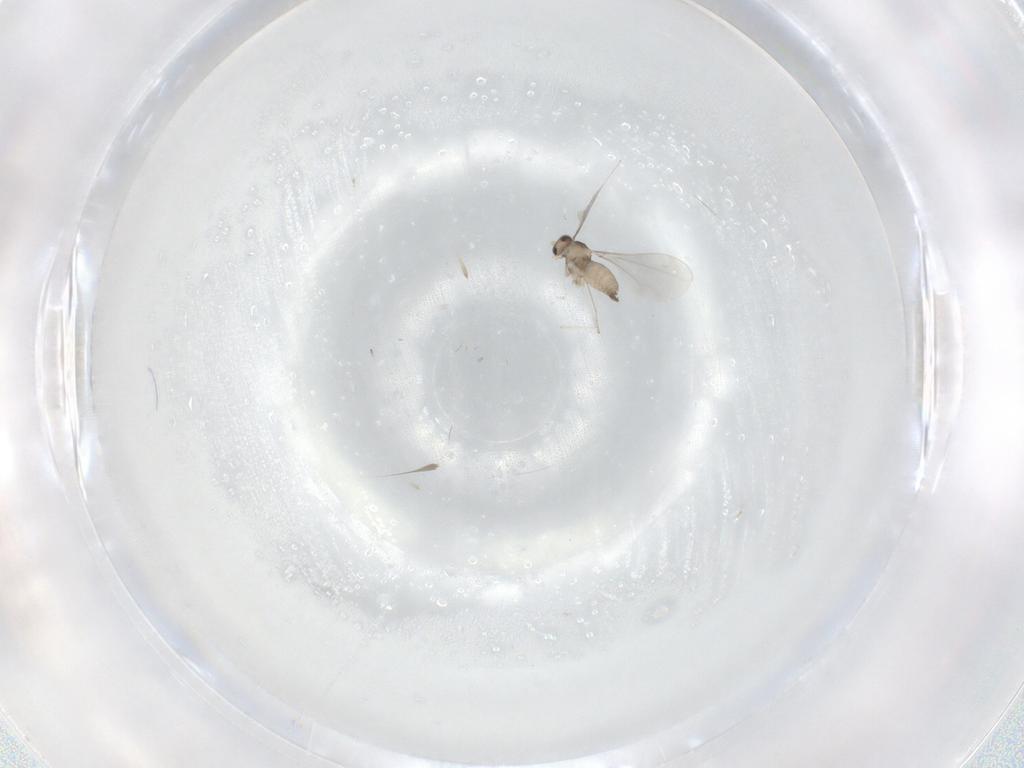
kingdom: Animalia
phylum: Arthropoda
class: Insecta
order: Diptera
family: Cecidomyiidae
